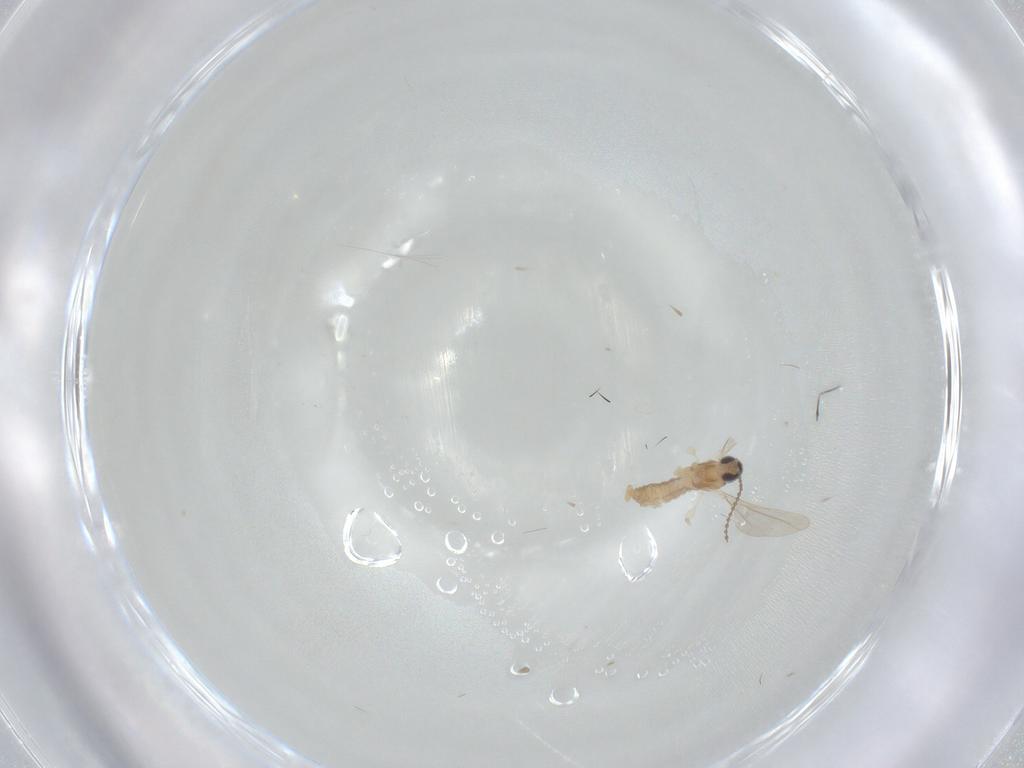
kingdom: Animalia
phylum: Arthropoda
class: Insecta
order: Diptera
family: Cecidomyiidae
